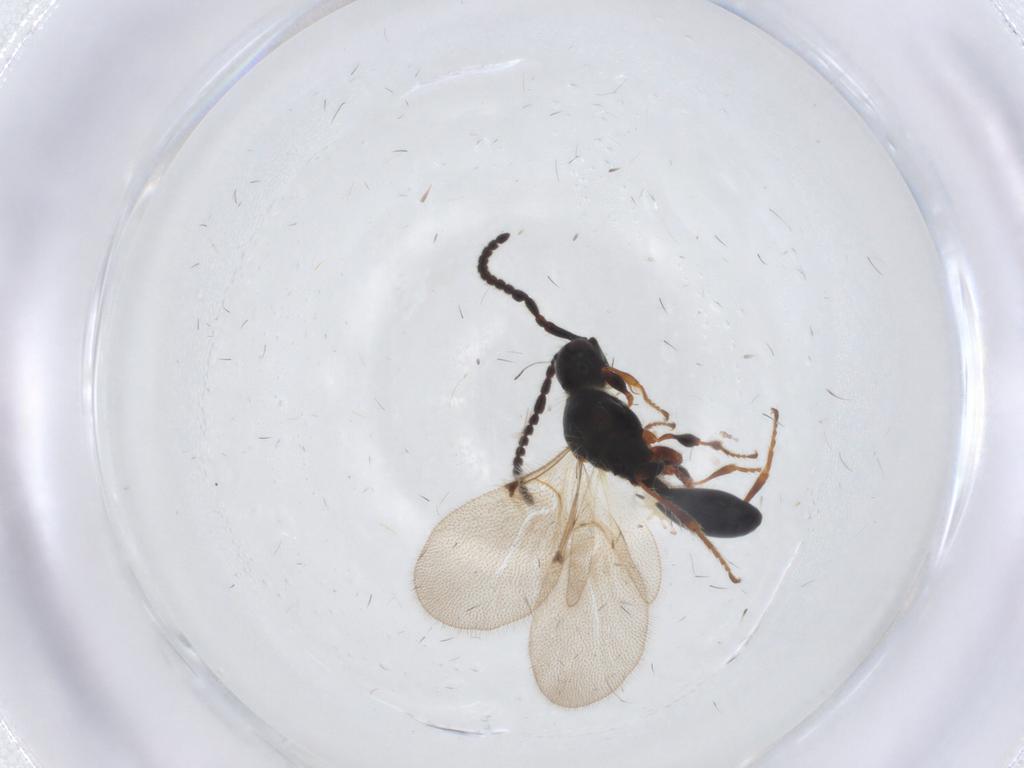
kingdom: Animalia
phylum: Arthropoda
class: Insecta
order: Hymenoptera
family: Diapriidae
